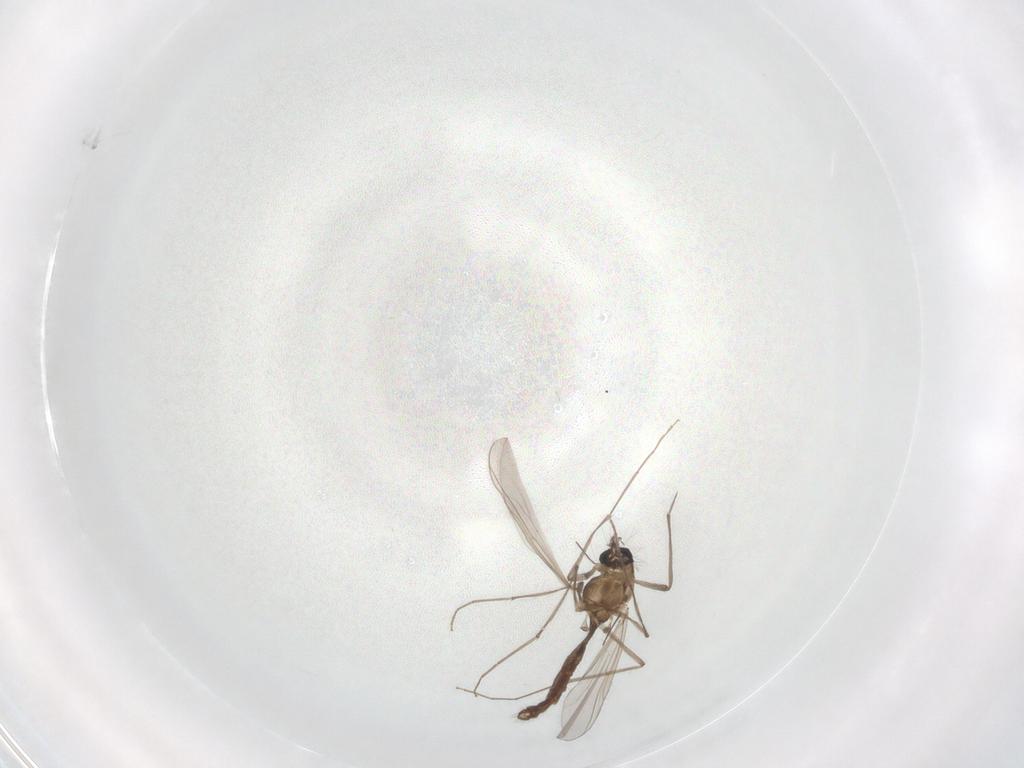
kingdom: Animalia
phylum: Arthropoda
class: Insecta
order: Diptera
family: Chironomidae
